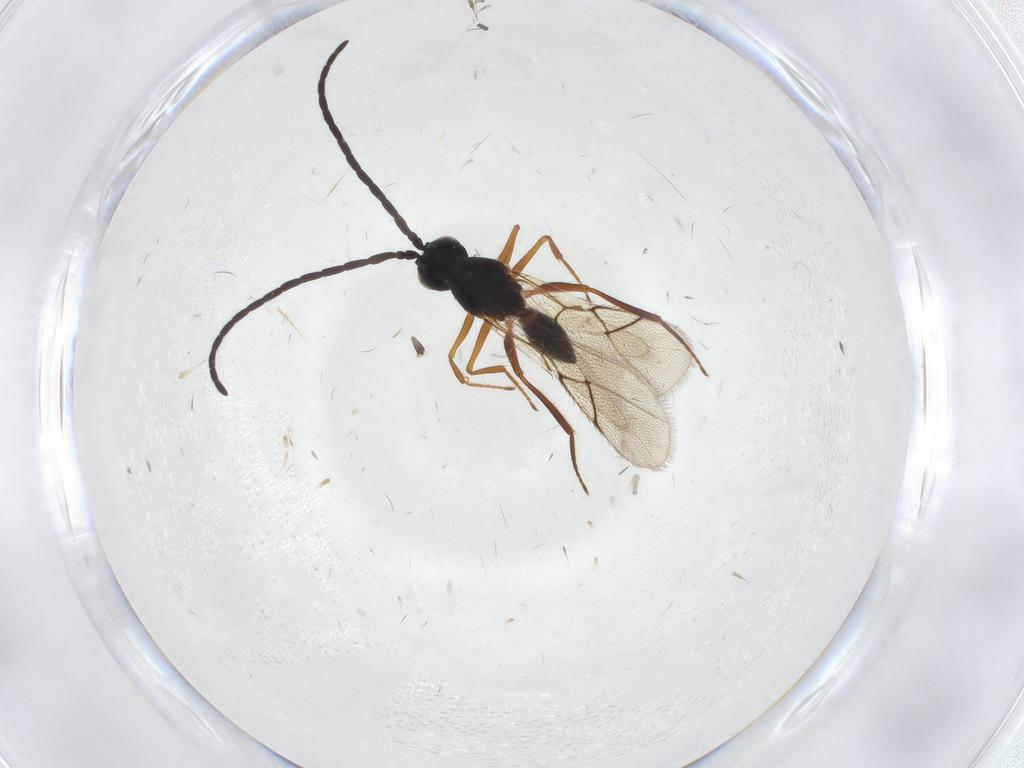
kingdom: Animalia
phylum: Arthropoda
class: Insecta
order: Hymenoptera
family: Figitidae
